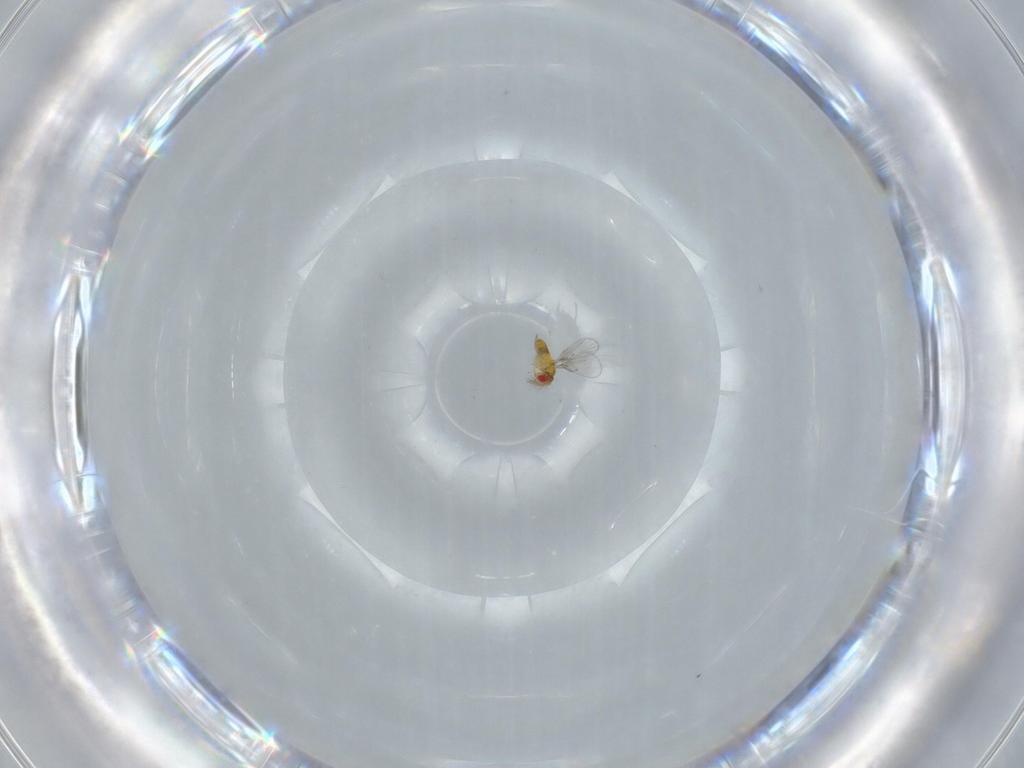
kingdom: Animalia
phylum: Arthropoda
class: Insecta
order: Hymenoptera
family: Trichogrammatidae
